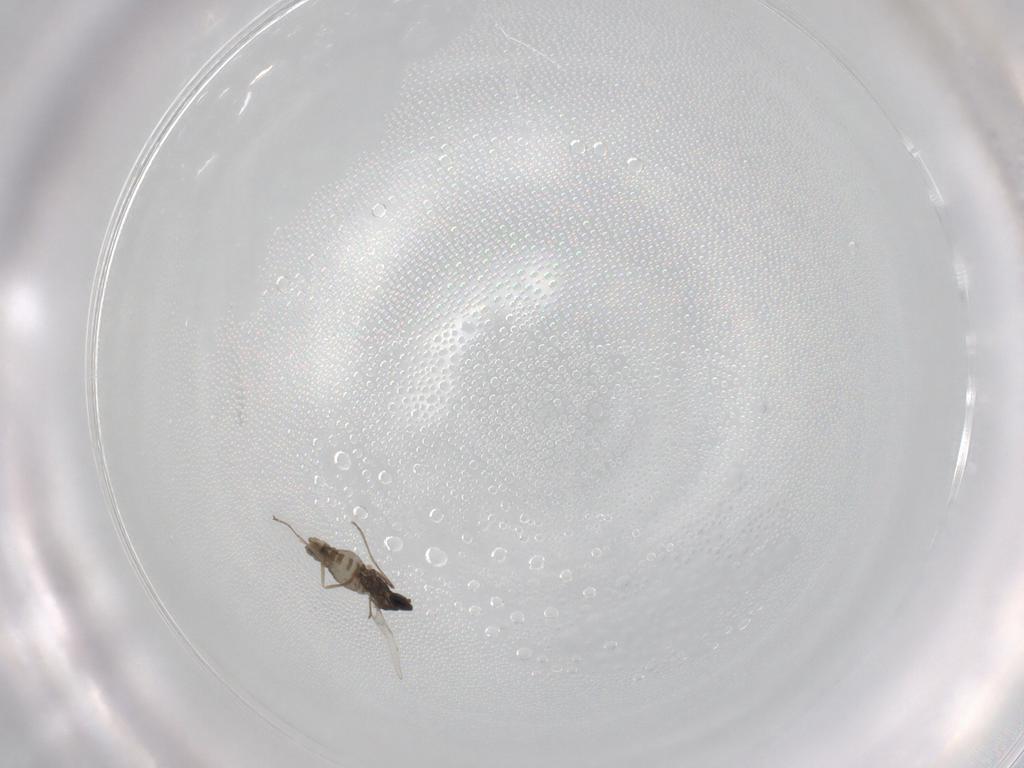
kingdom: Animalia
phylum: Arthropoda
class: Insecta
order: Diptera
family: Cecidomyiidae
